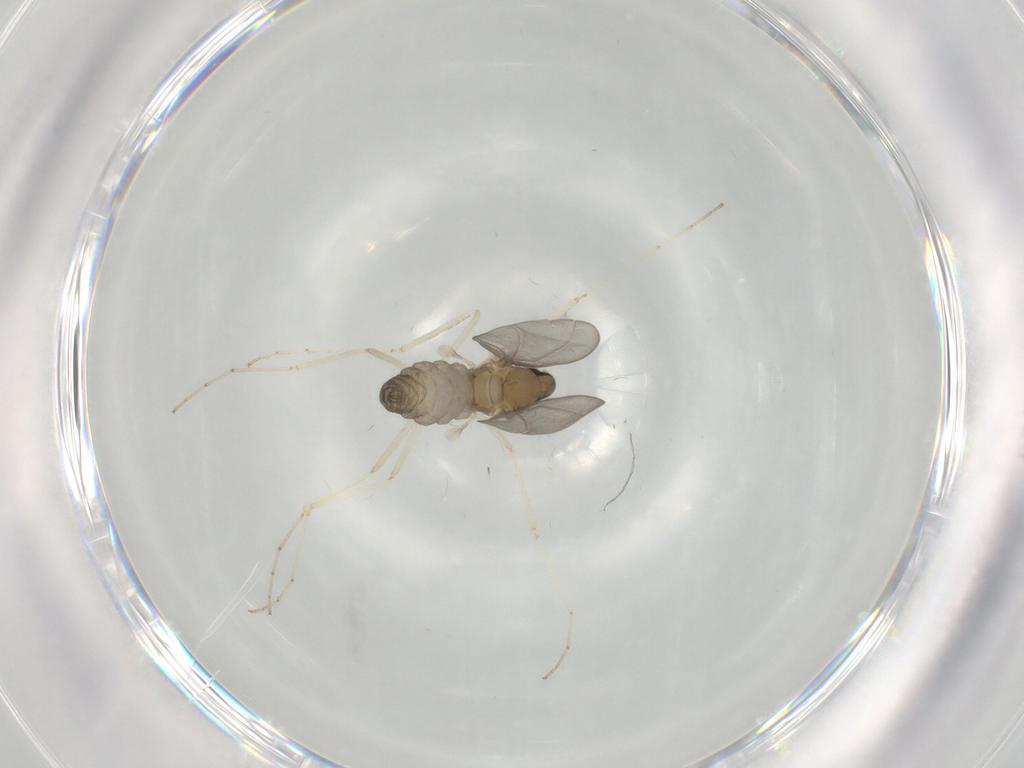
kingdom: Animalia
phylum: Arthropoda
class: Insecta
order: Diptera
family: Cecidomyiidae
